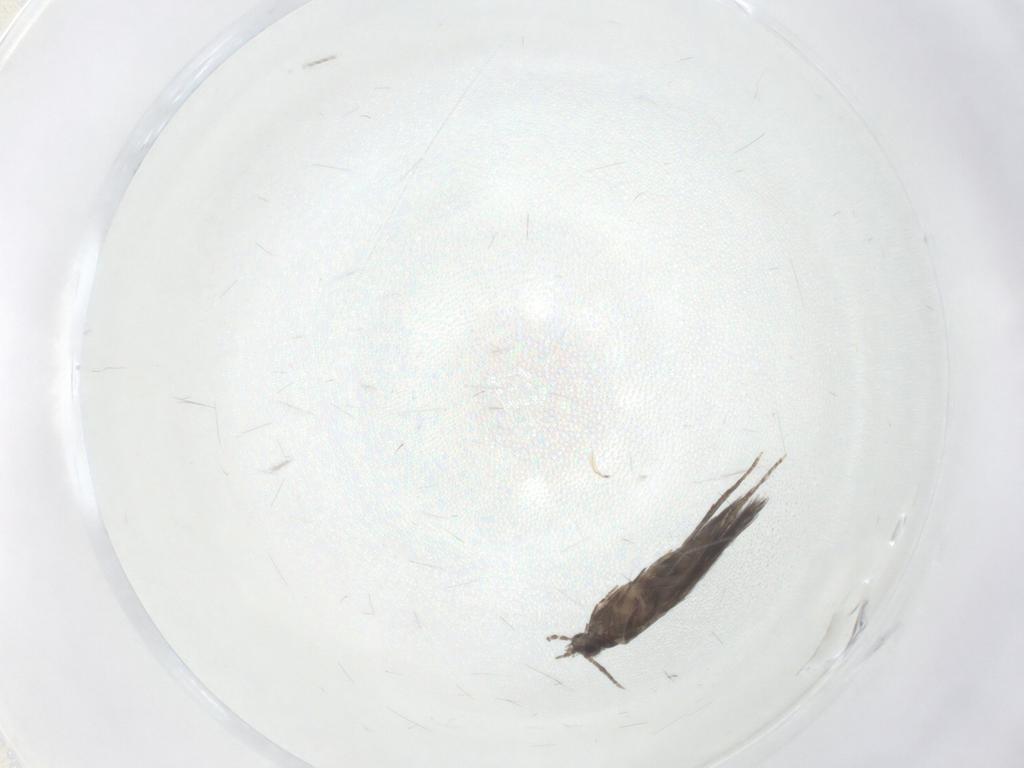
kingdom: Animalia
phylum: Arthropoda
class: Insecta
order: Trichoptera
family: Hydroptilidae
